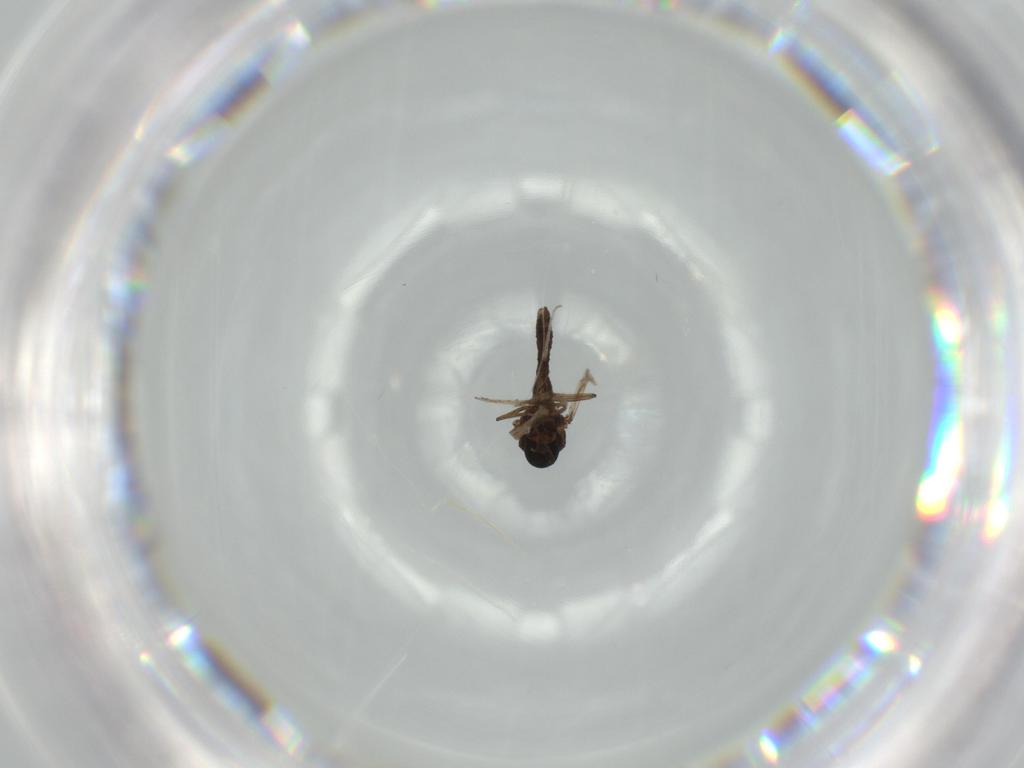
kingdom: Animalia
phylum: Arthropoda
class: Insecta
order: Diptera
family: Ceratopogonidae
